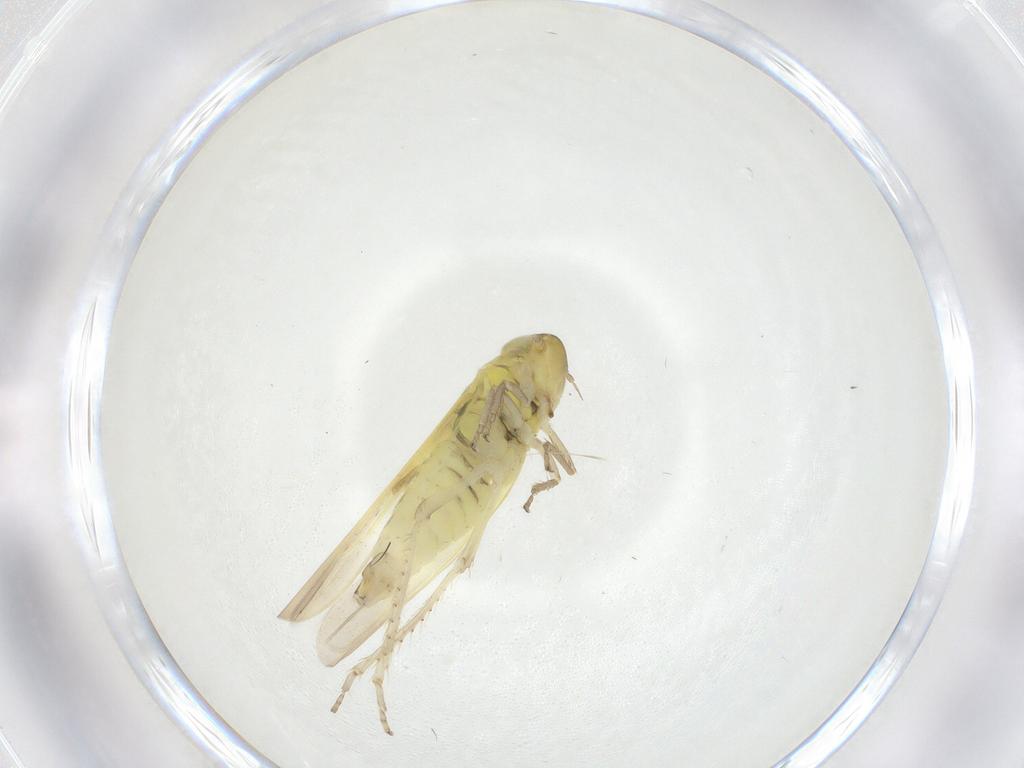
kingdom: Animalia
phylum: Arthropoda
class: Insecta
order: Hemiptera
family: Cicadellidae
